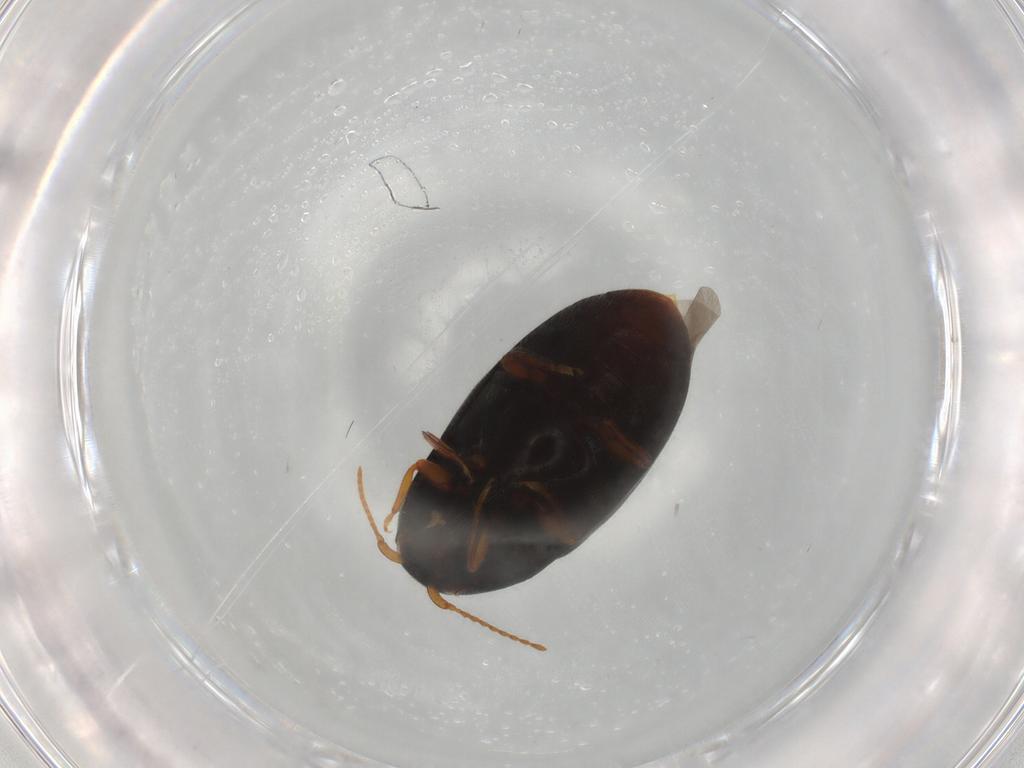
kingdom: Animalia
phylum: Arthropoda
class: Insecta
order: Coleoptera
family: Elateridae
